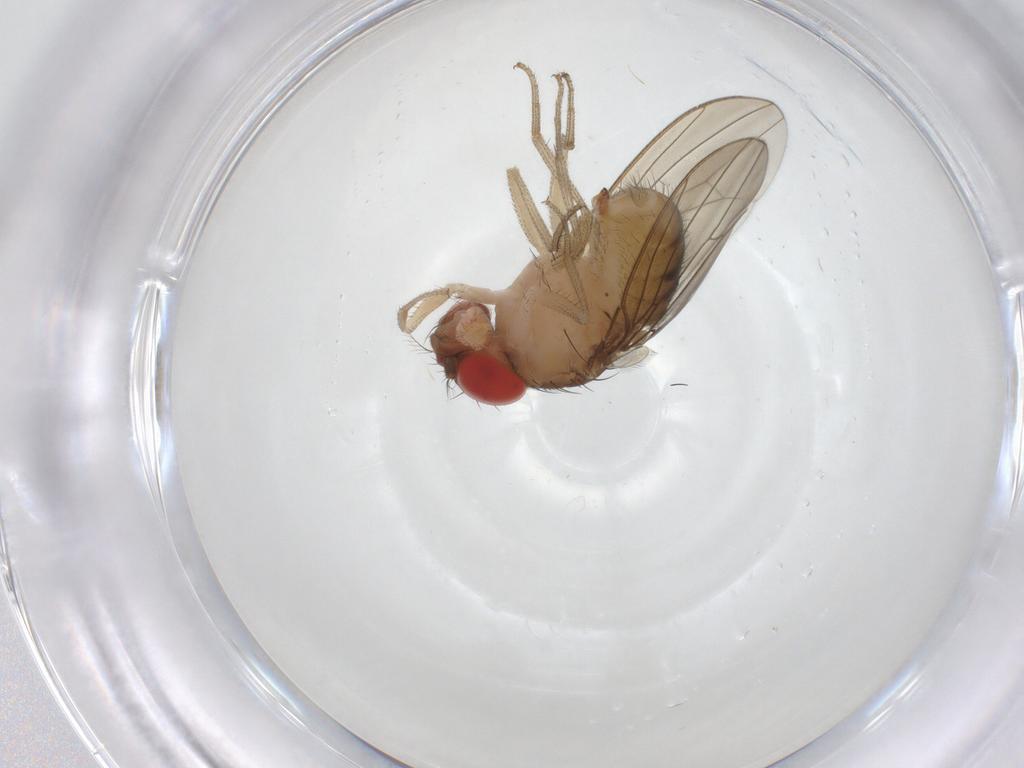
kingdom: Animalia
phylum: Arthropoda
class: Insecta
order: Diptera
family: Drosophilidae
